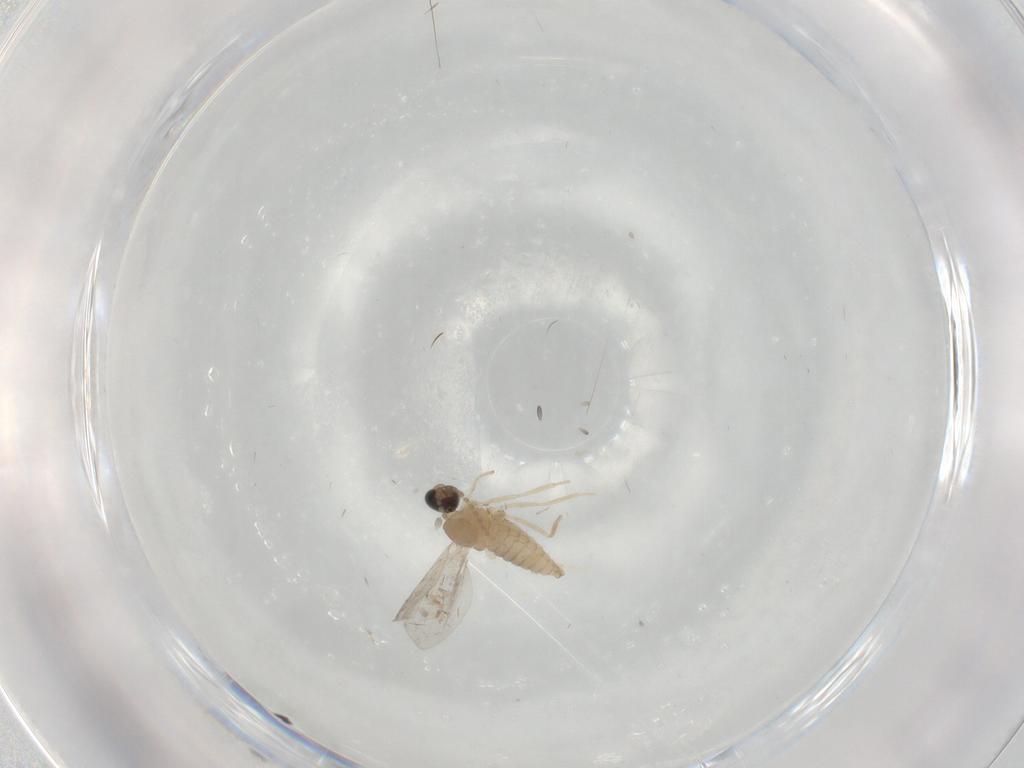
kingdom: Animalia
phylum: Arthropoda
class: Insecta
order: Diptera
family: Cecidomyiidae
